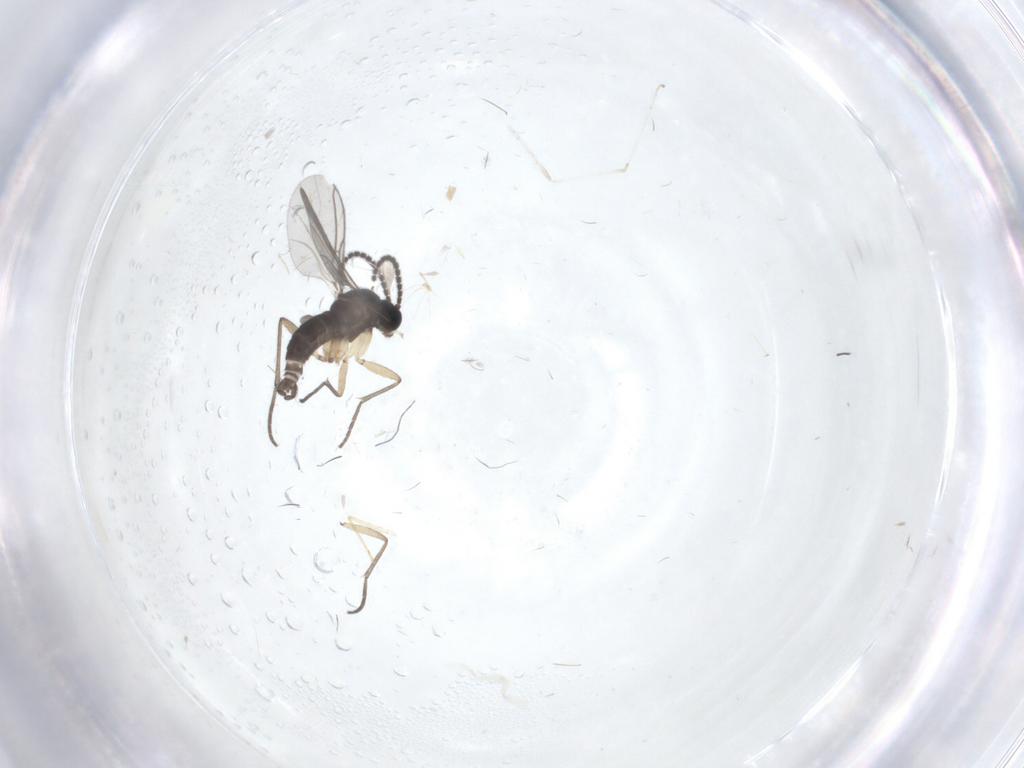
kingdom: Animalia
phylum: Arthropoda
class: Insecta
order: Diptera
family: Sciaridae
